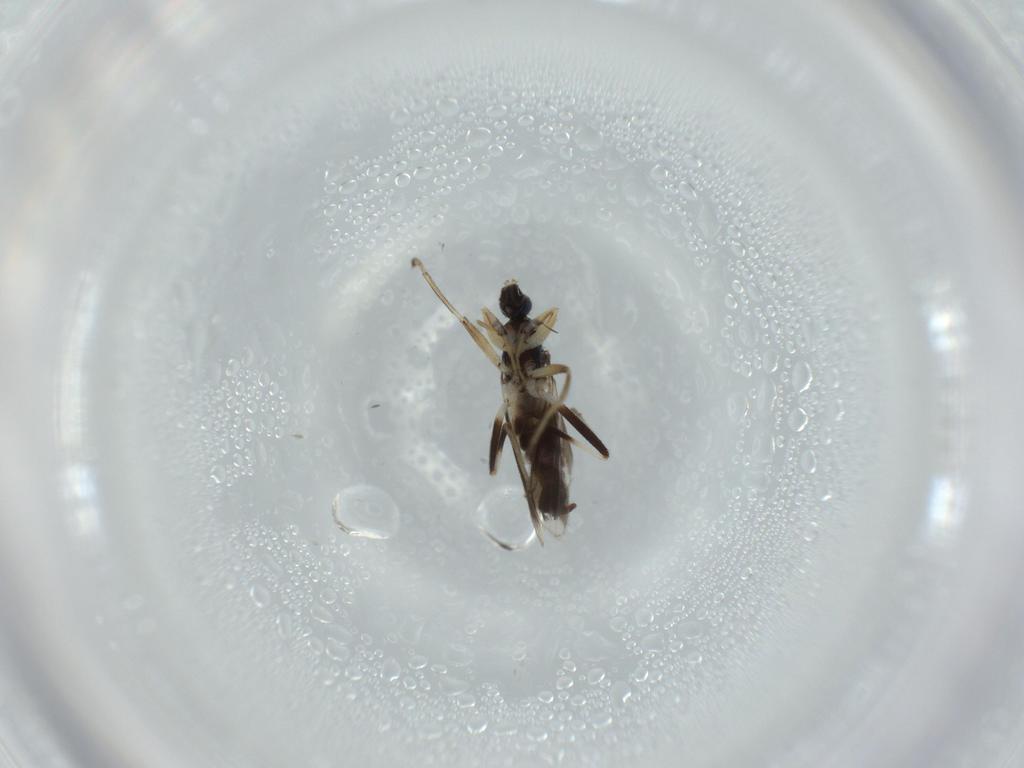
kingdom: Animalia
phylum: Arthropoda
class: Insecta
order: Diptera
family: Hybotidae
